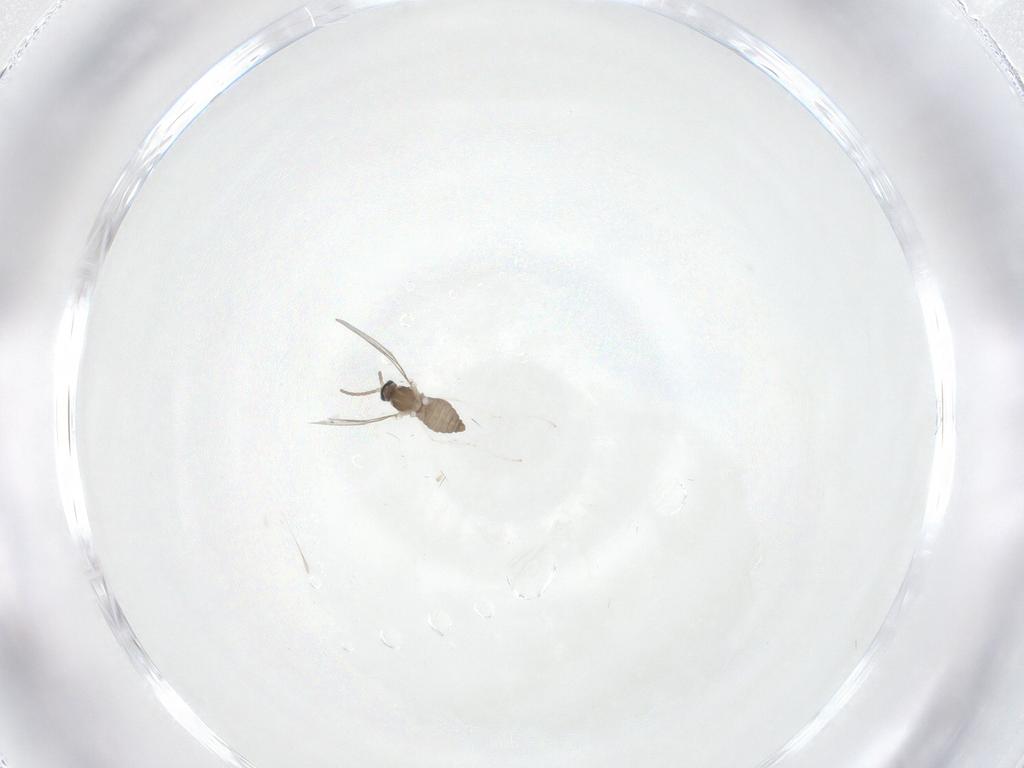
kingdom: Animalia
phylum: Arthropoda
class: Insecta
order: Diptera
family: Cecidomyiidae
